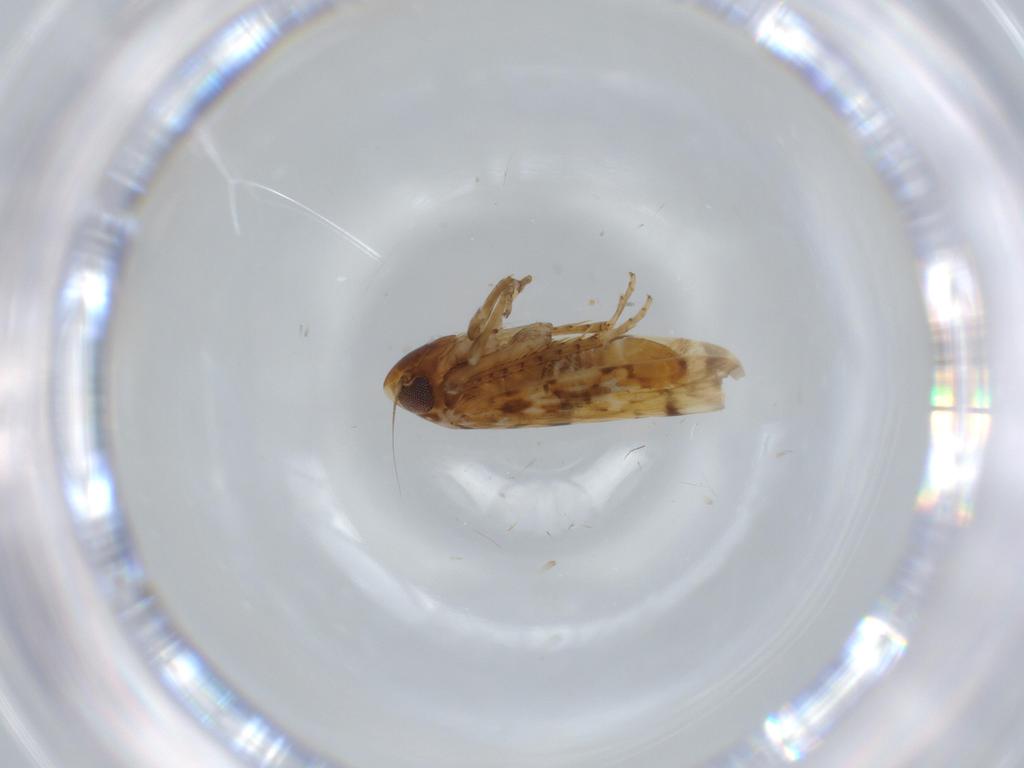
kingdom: Animalia
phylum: Arthropoda
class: Insecta
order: Hemiptera
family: Cicadellidae
